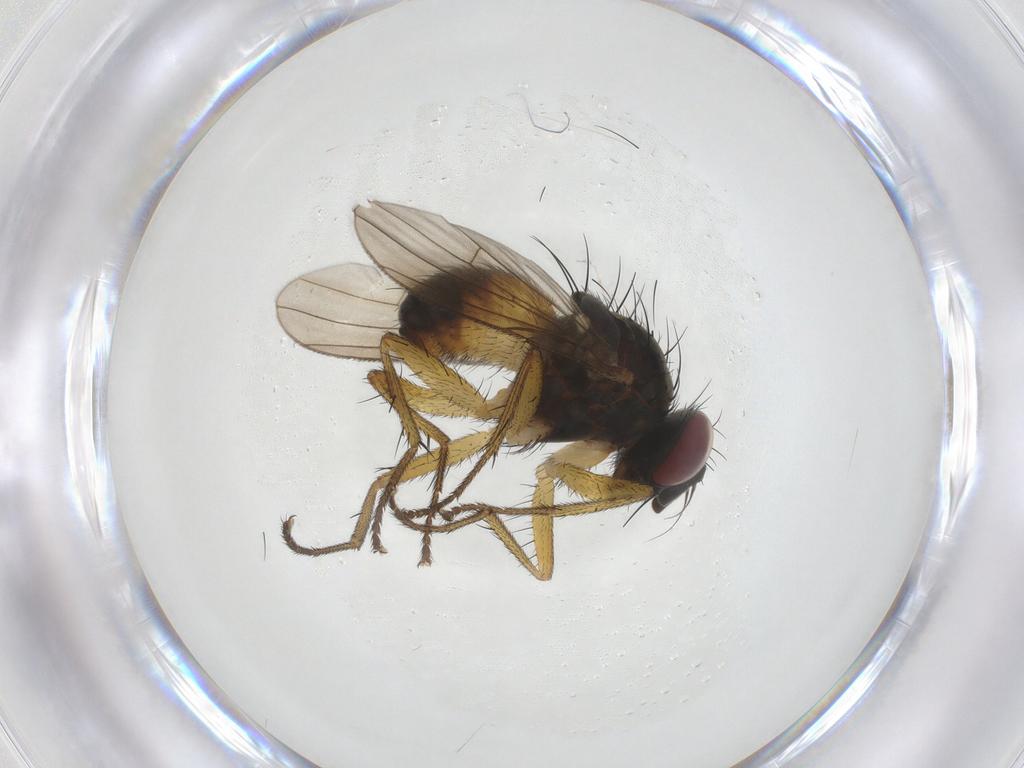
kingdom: Animalia
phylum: Arthropoda
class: Insecta
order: Diptera
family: Muscidae
